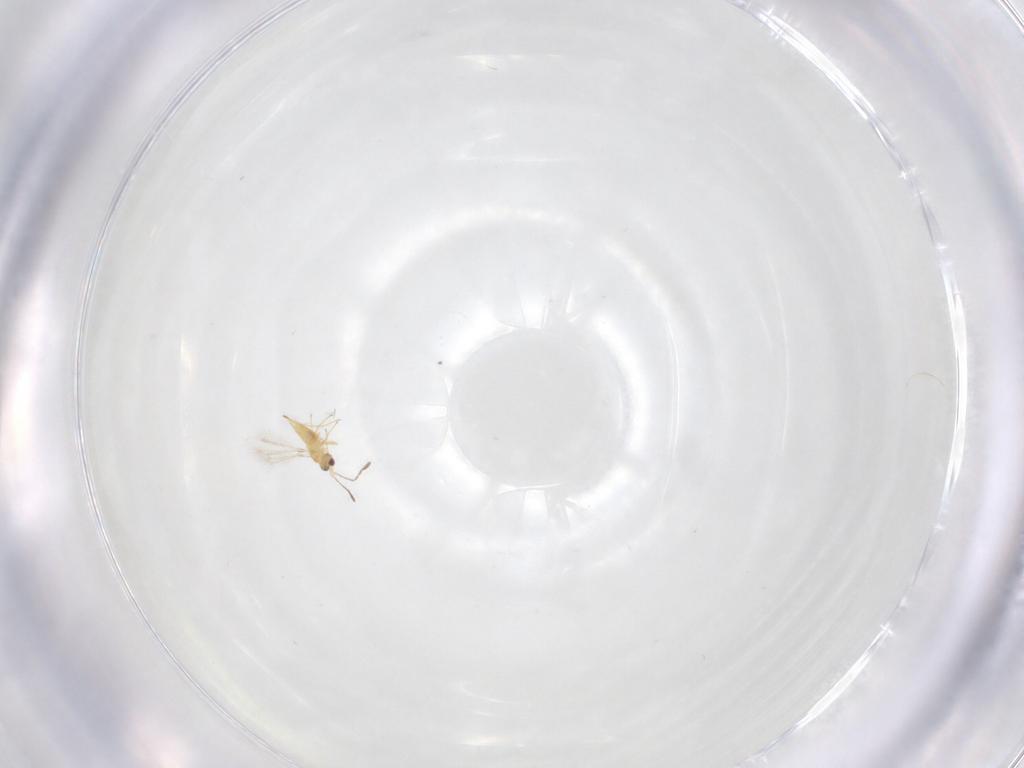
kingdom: Animalia
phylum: Arthropoda
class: Insecta
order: Hymenoptera
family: Mymaridae
